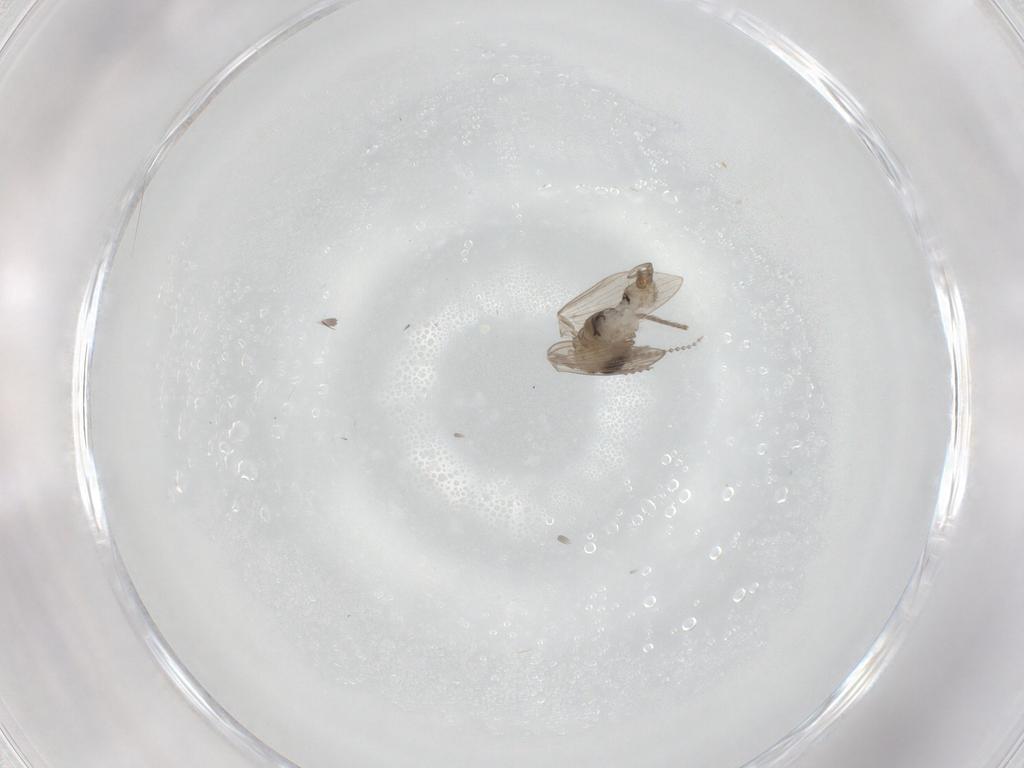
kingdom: Animalia
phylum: Arthropoda
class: Insecta
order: Diptera
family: Psychodidae
